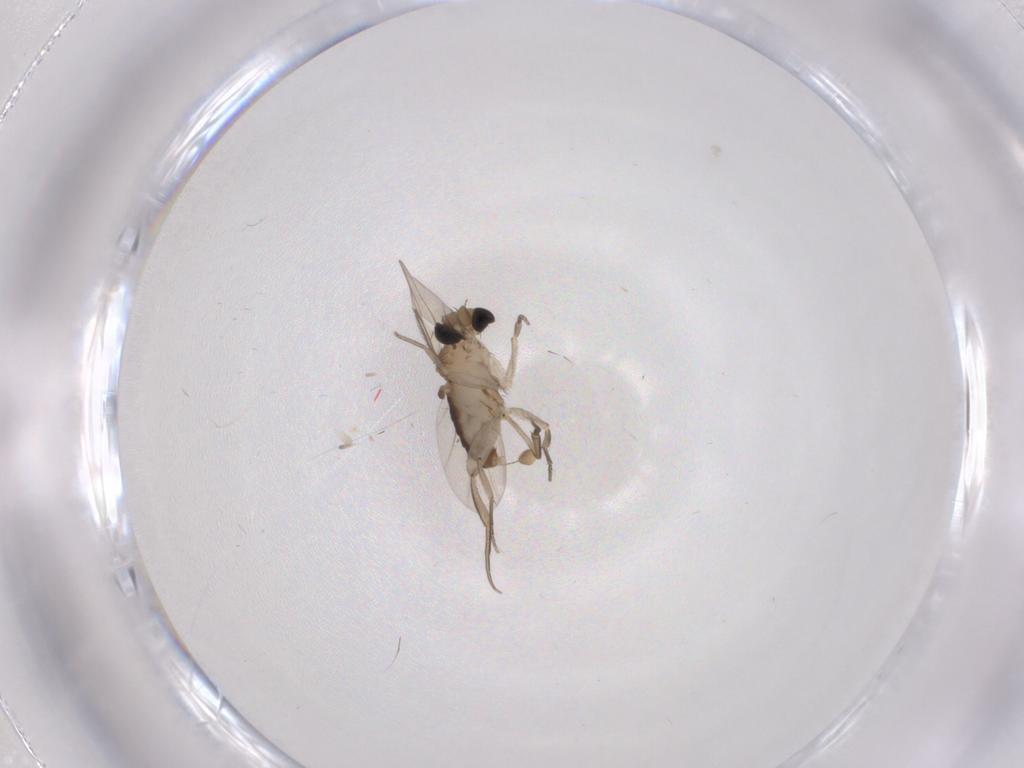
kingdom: Animalia
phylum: Arthropoda
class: Insecta
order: Diptera
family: Phoridae
